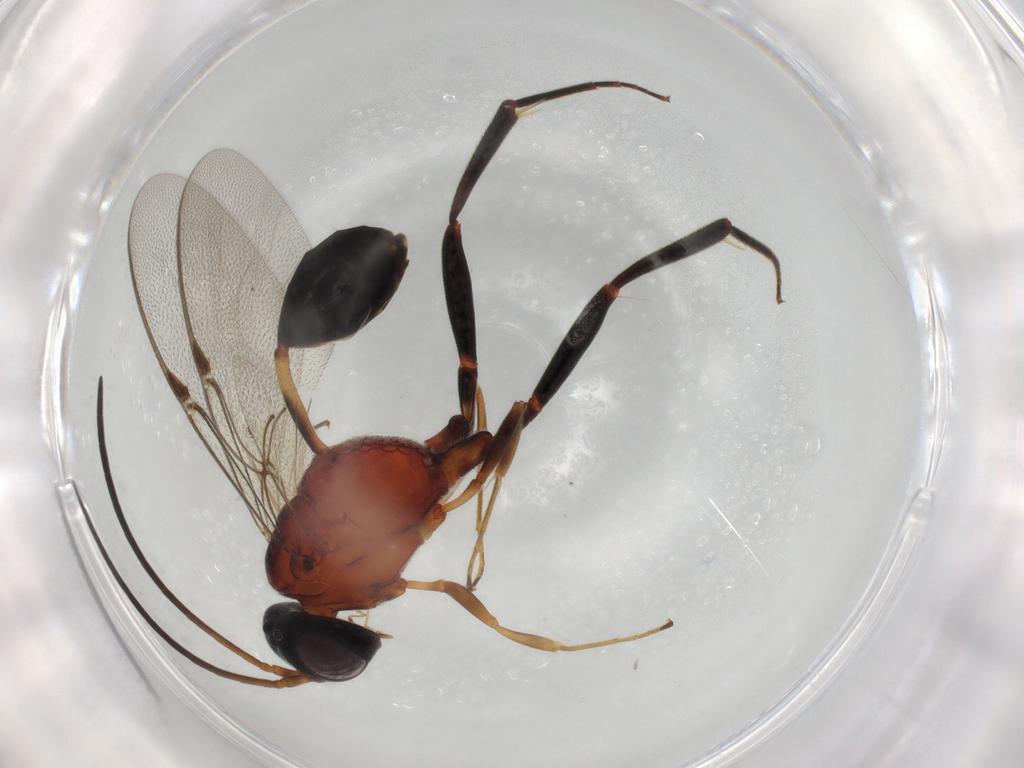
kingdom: Animalia
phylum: Arthropoda
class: Insecta
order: Hymenoptera
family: Evaniidae
